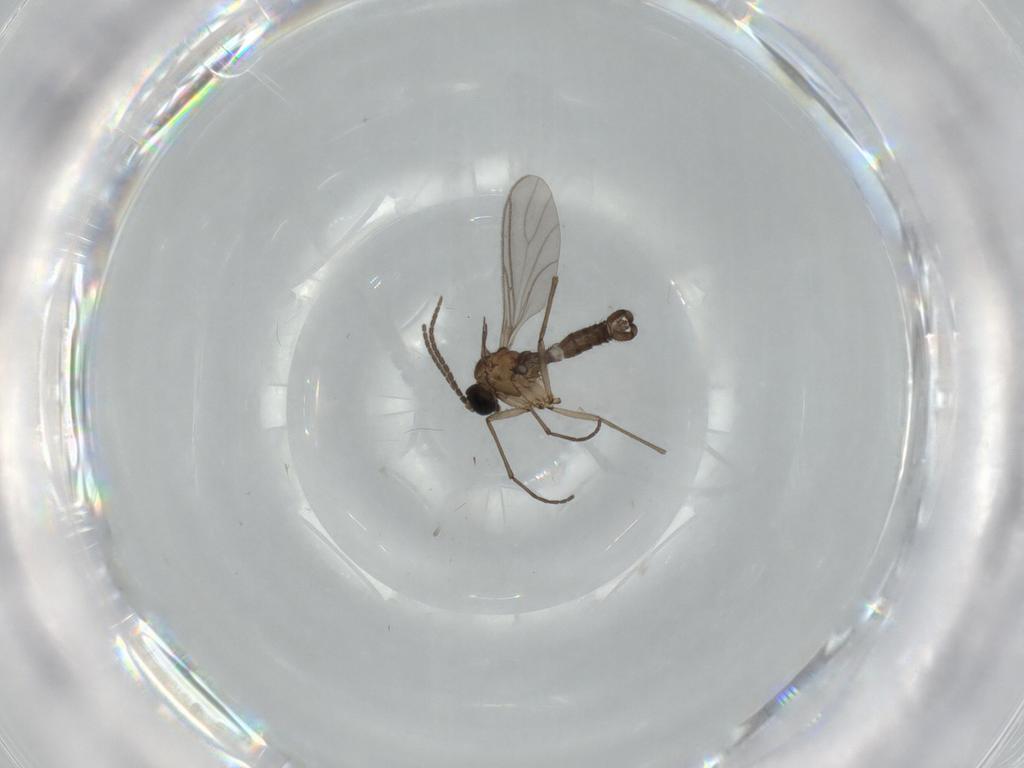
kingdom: Animalia
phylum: Arthropoda
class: Insecta
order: Diptera
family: Sciaridae
